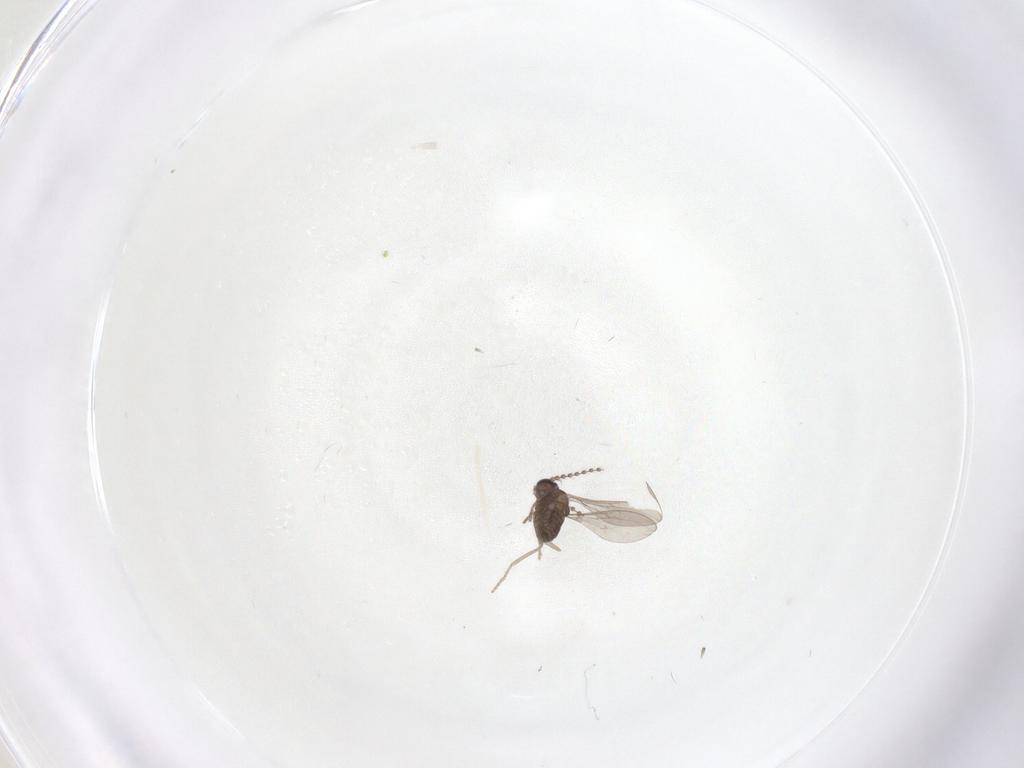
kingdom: Animalia
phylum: Arthropoda
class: Insecta
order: Diptera
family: Cecidomyiidae
